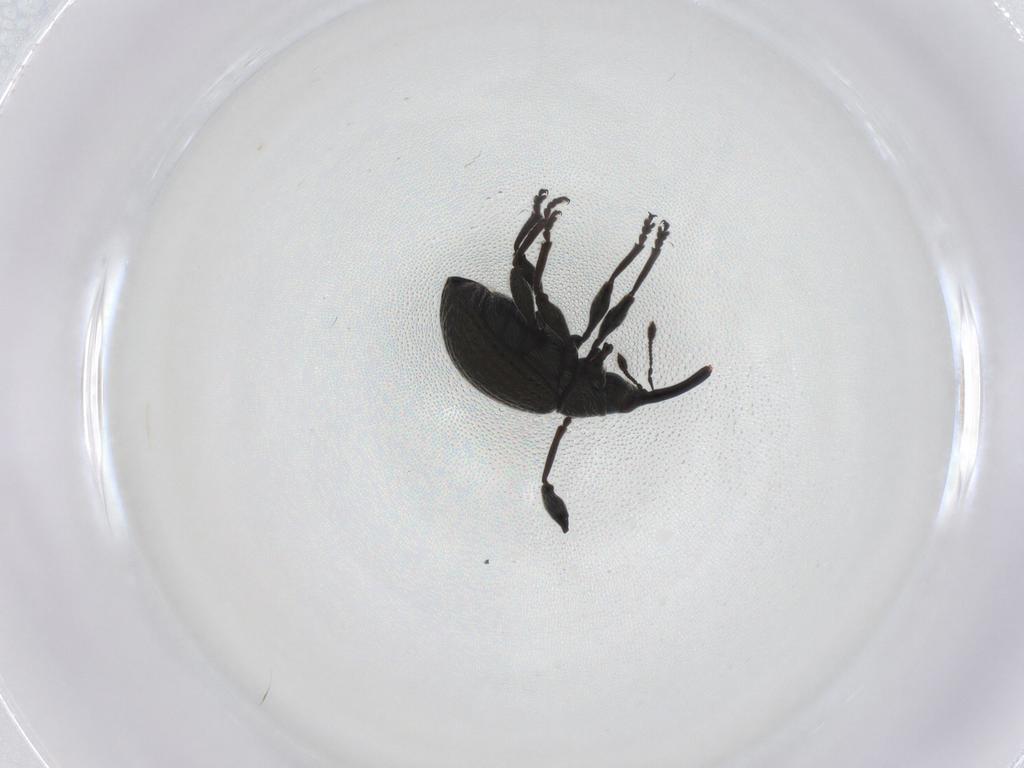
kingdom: Animalia
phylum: Arthropoda
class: Insecta
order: Coleoptera
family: Brentidae
